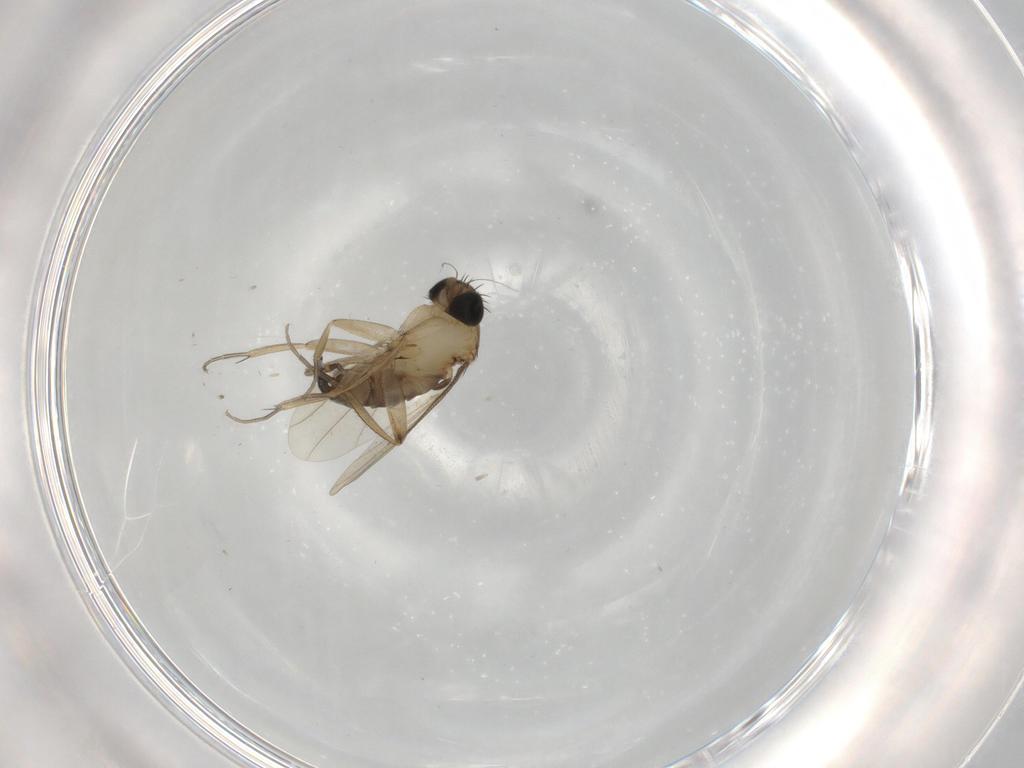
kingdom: Animalia
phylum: Arthropoda
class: Insecta
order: Diptera
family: Phoridae
